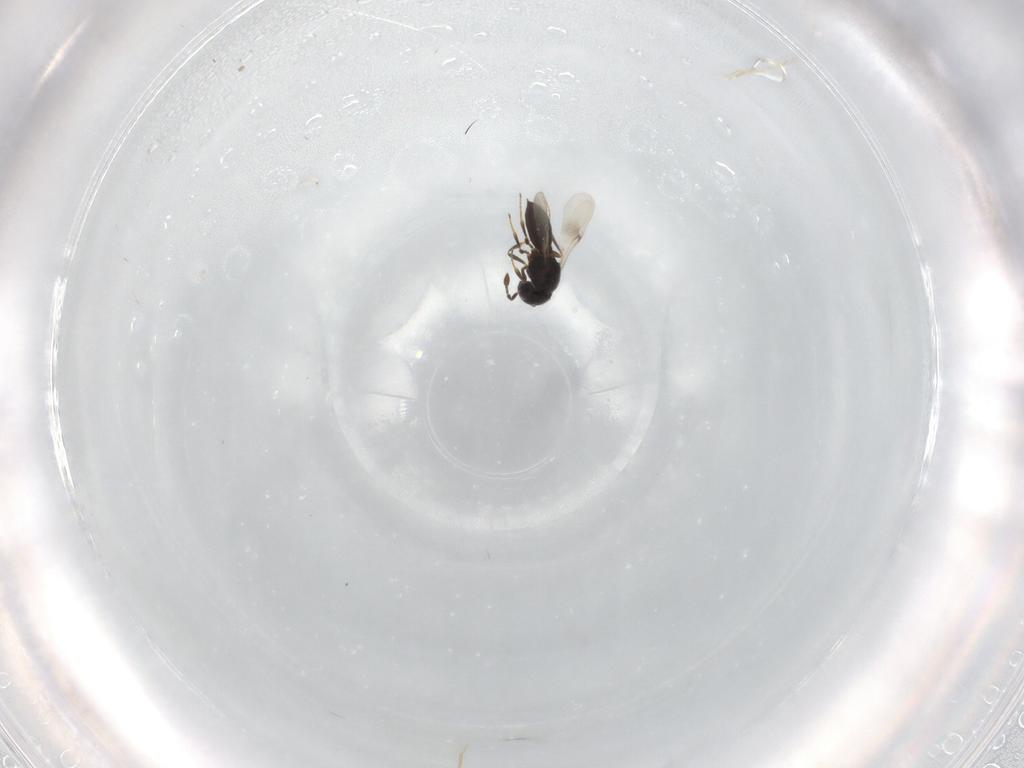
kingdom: Animalia
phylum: Arthropoda
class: Insecta
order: Hymenoptera
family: Scelionidae
